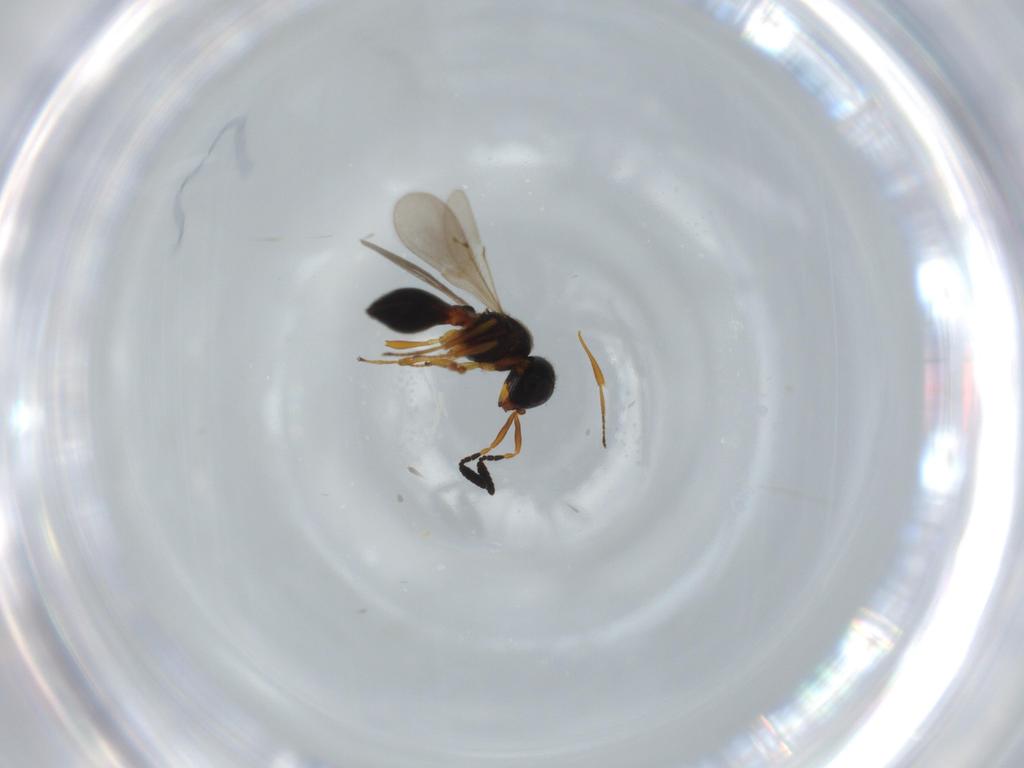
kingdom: Animalia
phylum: Arthropoda
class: Insecta
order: Hymenoptera
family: Scelionidae
